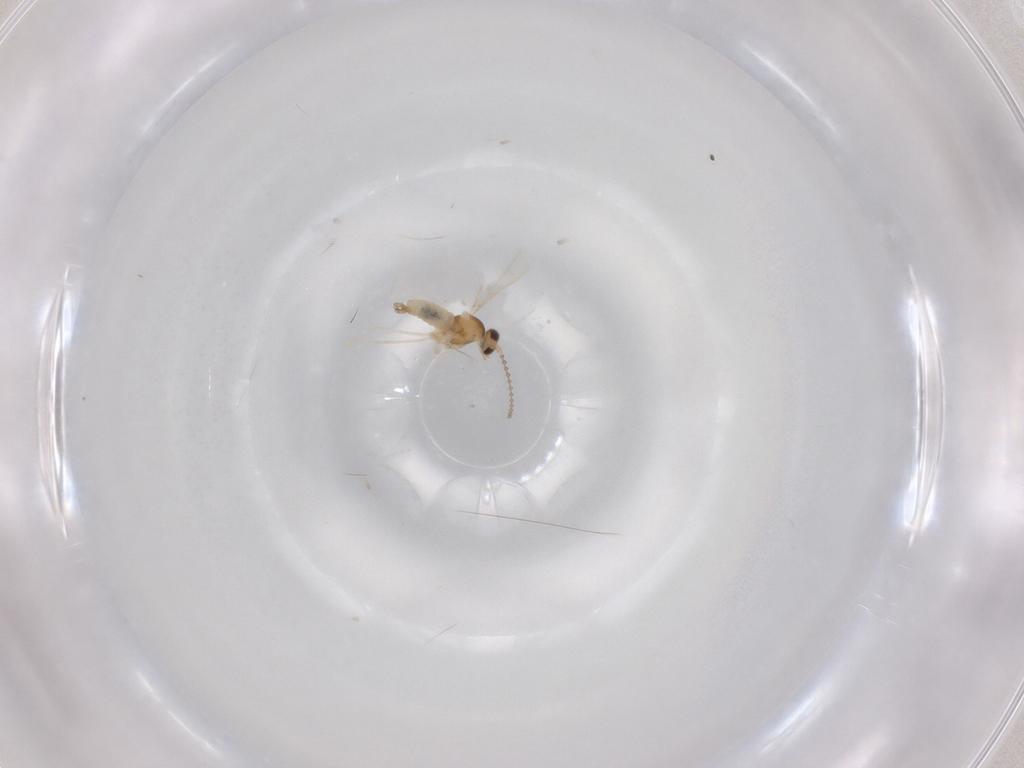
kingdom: Animalia
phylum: Arthropoda
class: Insecta
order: Diptera
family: Cecidomyiidae
